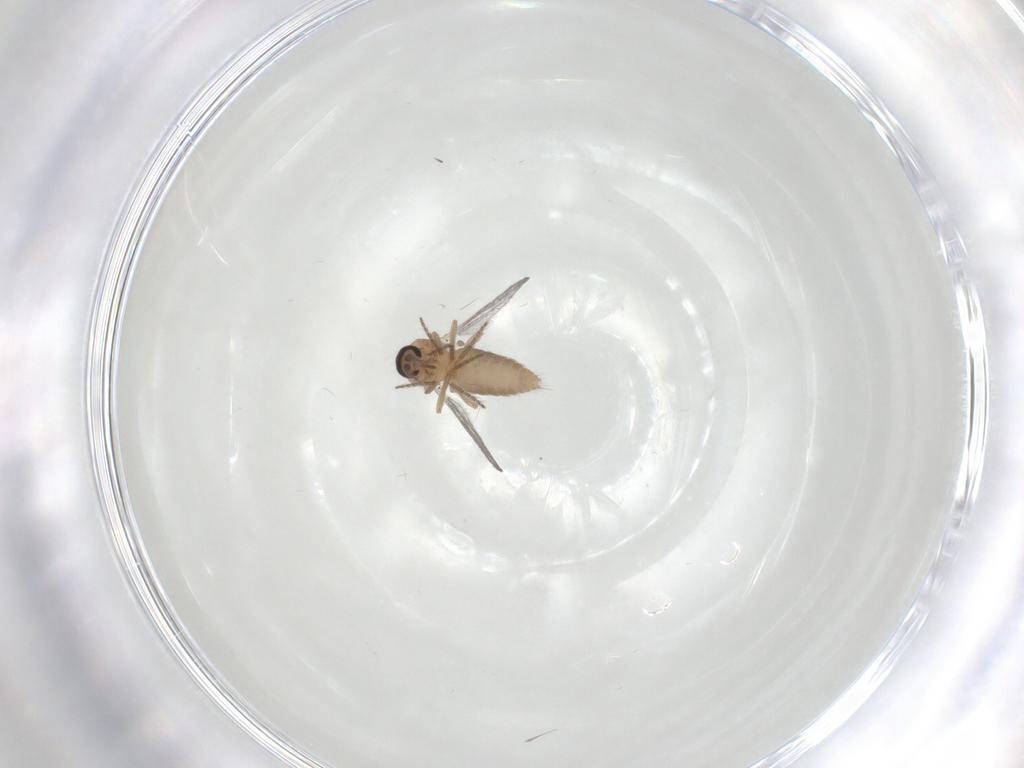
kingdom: Animalia
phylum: Arthropoda
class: Insecta
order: Diptera
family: Ceratopogonidae
